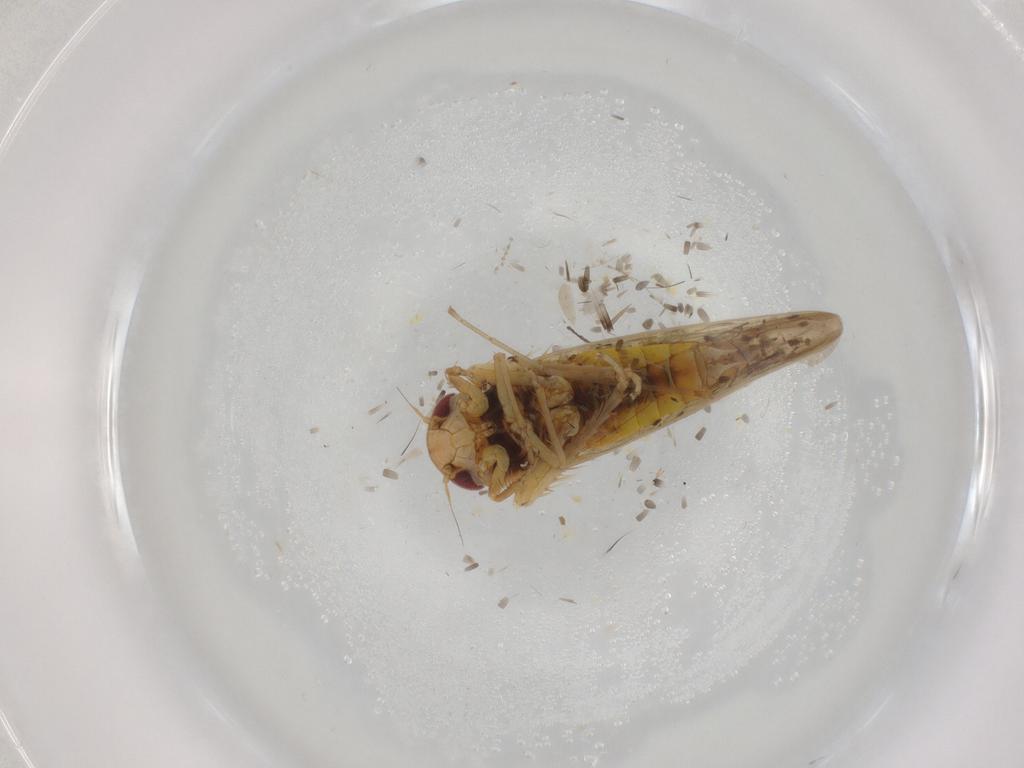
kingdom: Animalia
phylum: Arthropoda
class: Insecta
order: Hemiptera
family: Cicadellidae
